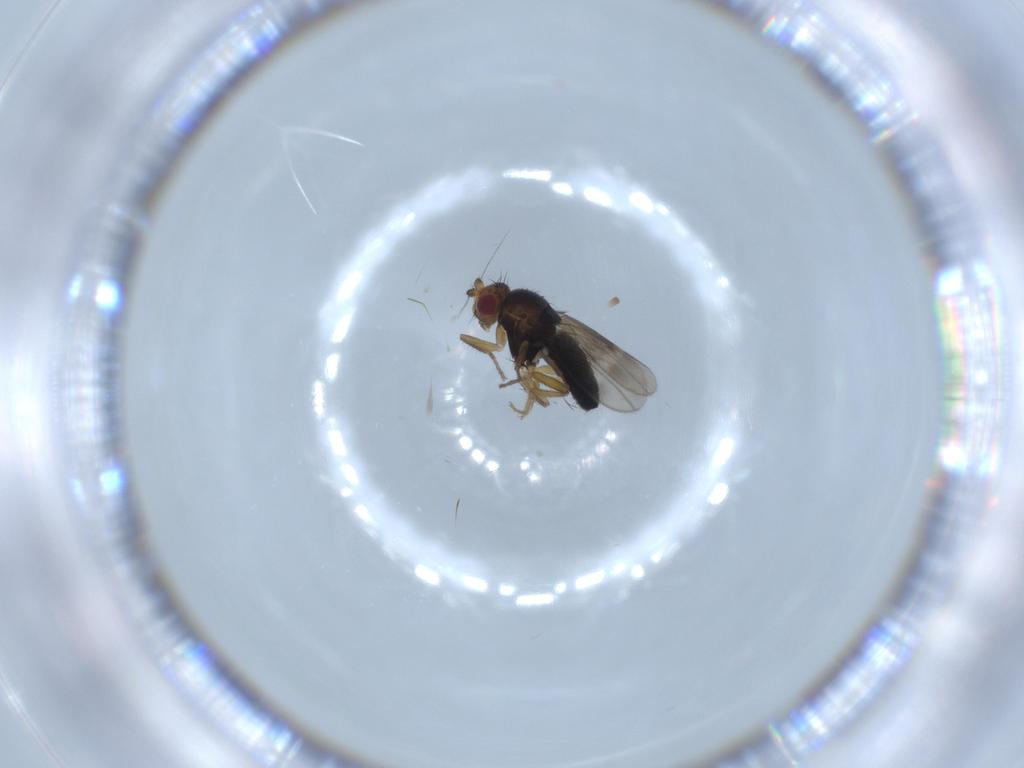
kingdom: Animalia
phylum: Arthropoda
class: Insecta
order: Diptera
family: Sphaeroceridae
